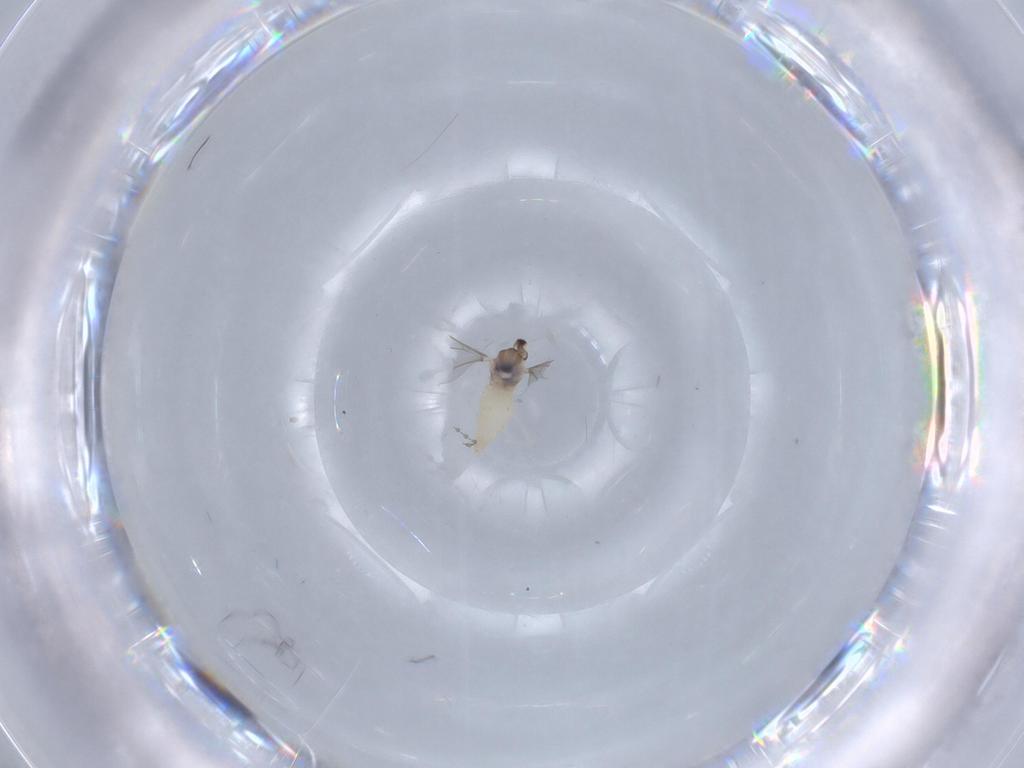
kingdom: Animalia
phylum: Arthropoda
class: Insecta
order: Diptera
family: Cecidomyiidae
